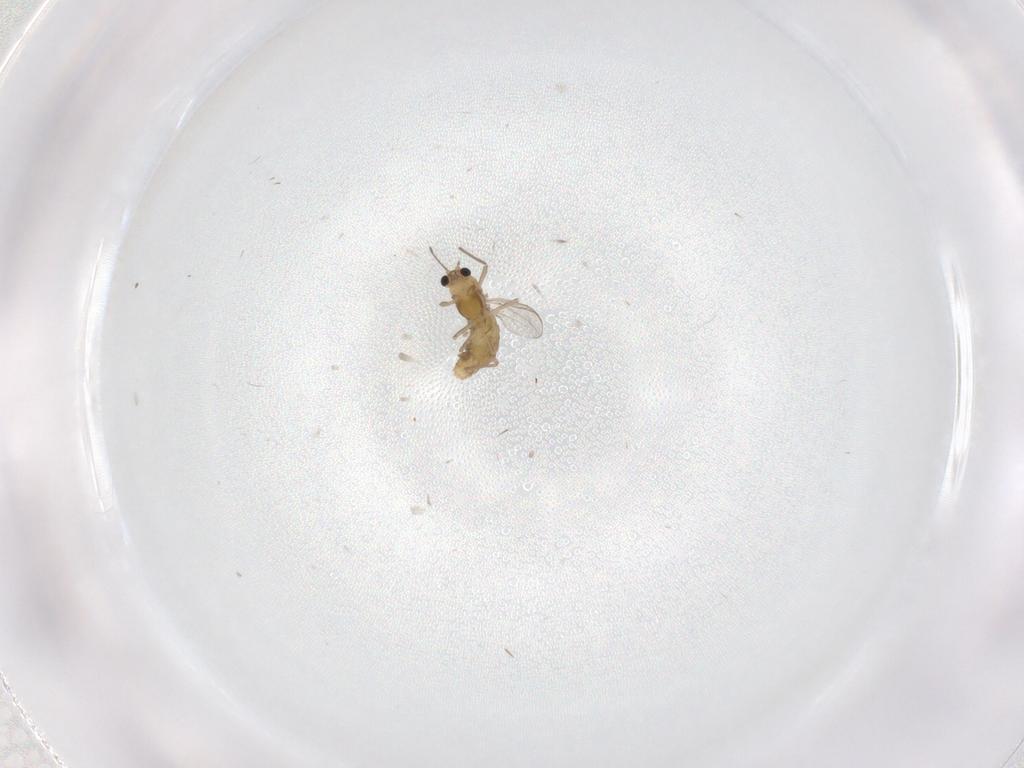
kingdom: Animalia
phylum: Arthropoda
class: Insecta
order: Diptera
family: Chironomidae
